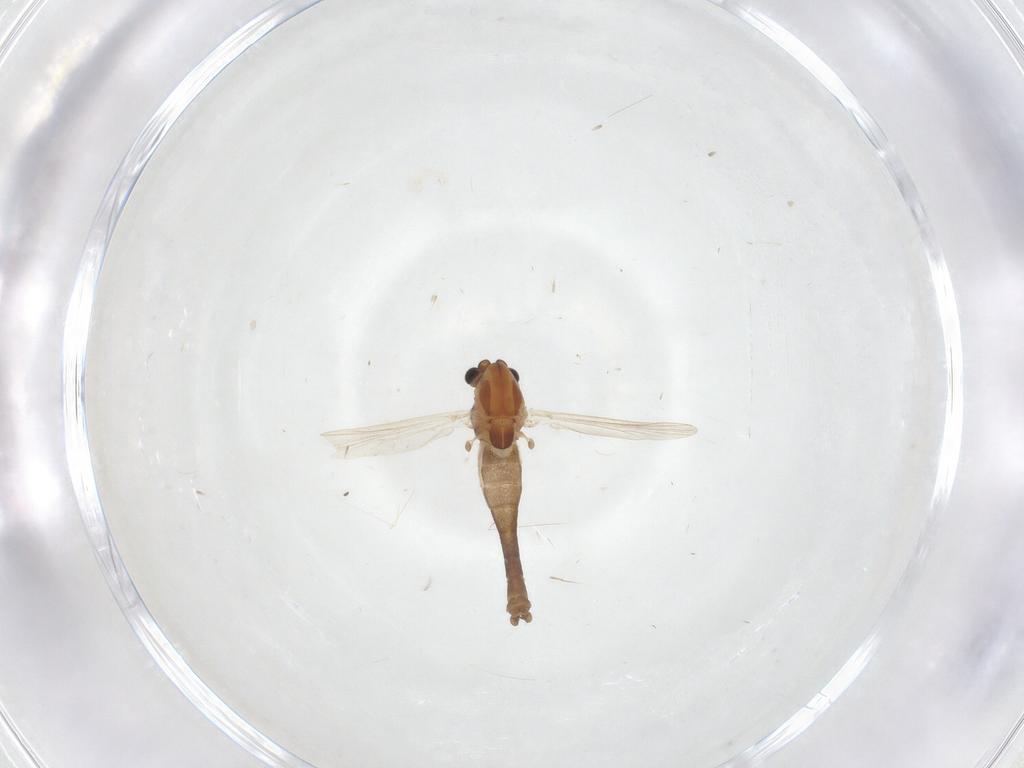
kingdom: Animalia
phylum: Arthropoda
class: Insecta
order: Diptera
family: Chironomidae
